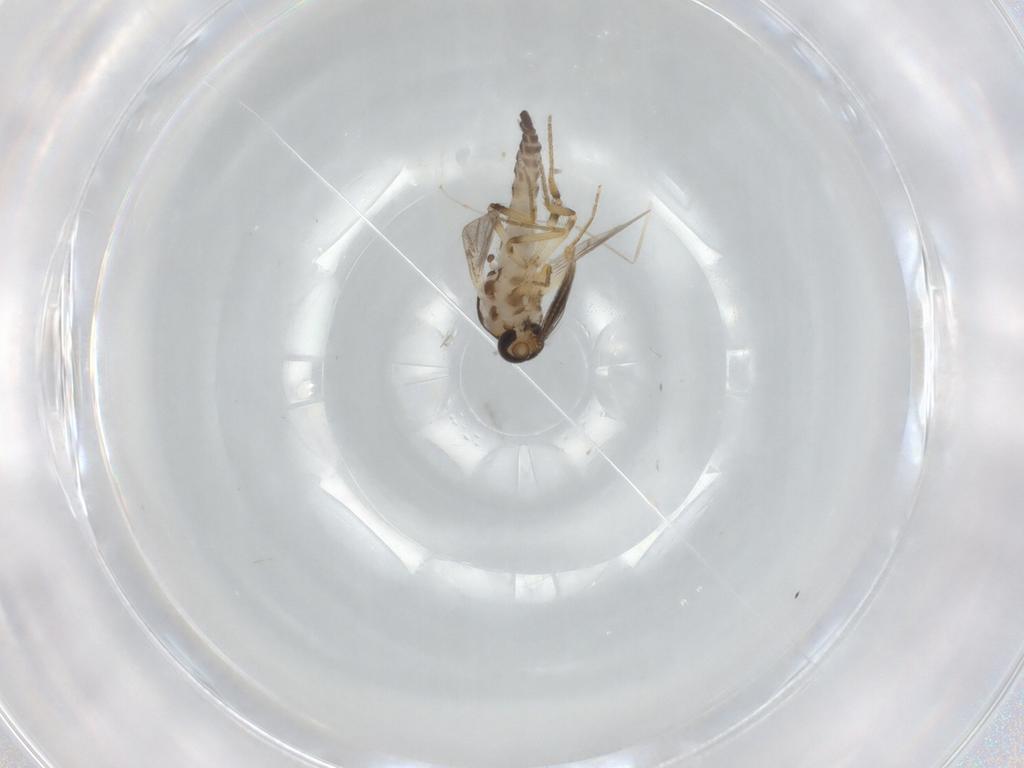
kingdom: Animalia
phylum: Arthropoda
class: Insecta
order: Diptera
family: Ceratopogonidae
